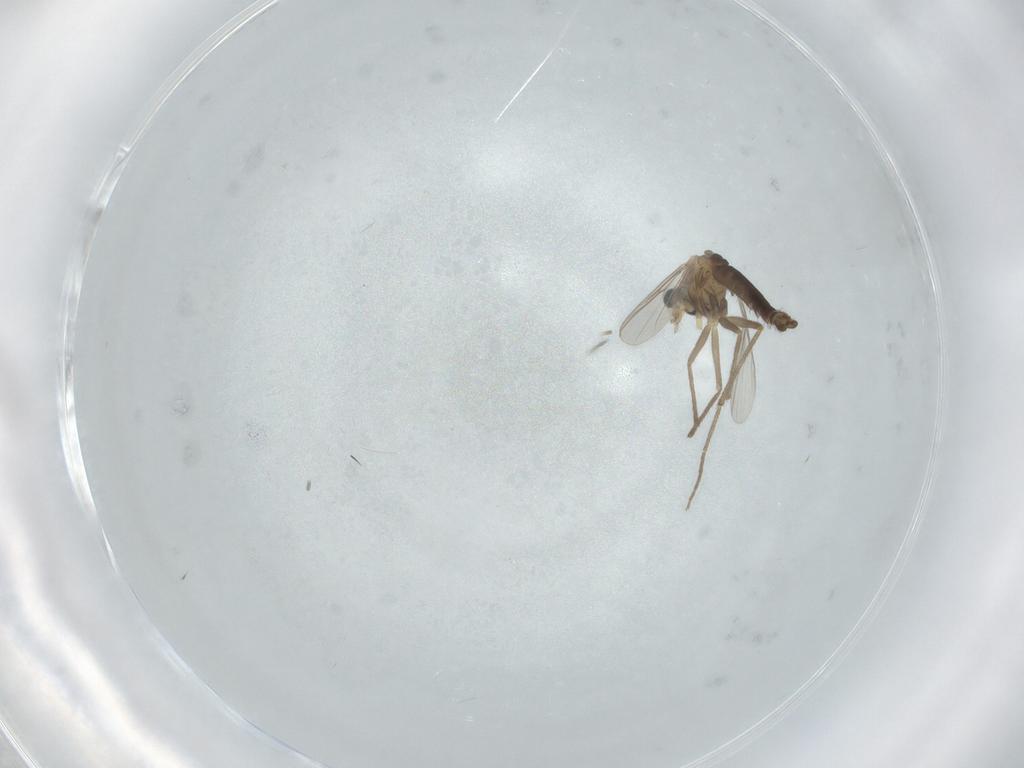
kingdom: Animalia
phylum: Arthropoda
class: Insecta
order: Diptera
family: Chironomidae
